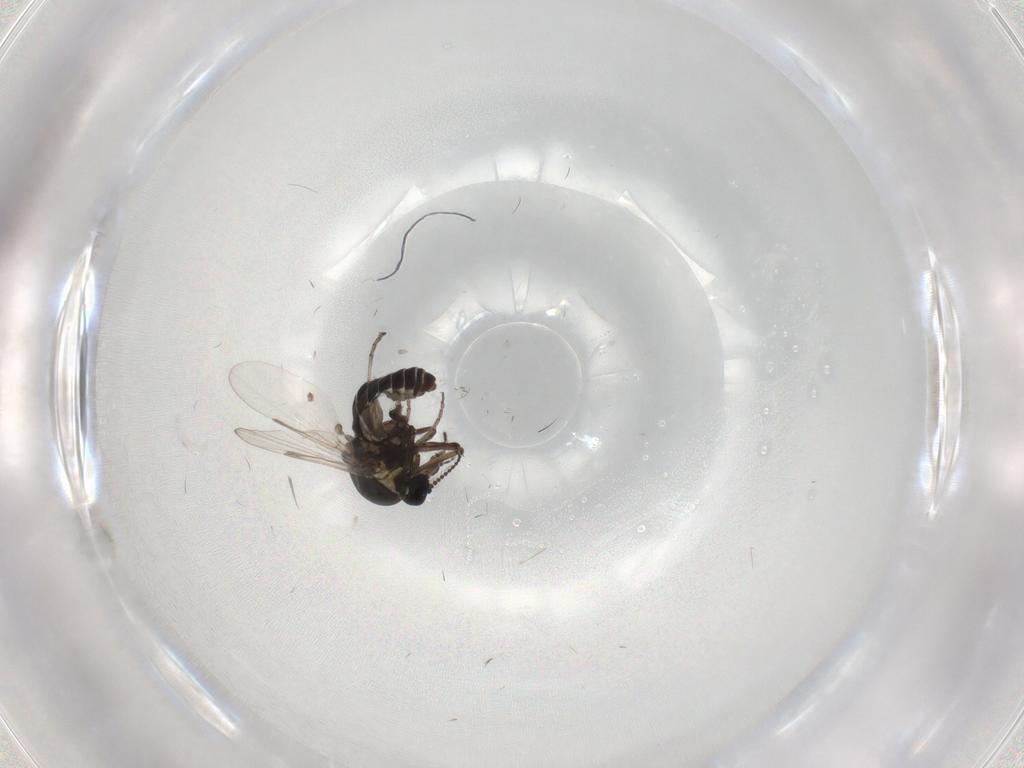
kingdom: Animalia
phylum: Arthropoda
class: Insecta
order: Diptera
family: Ceratopogonidae
